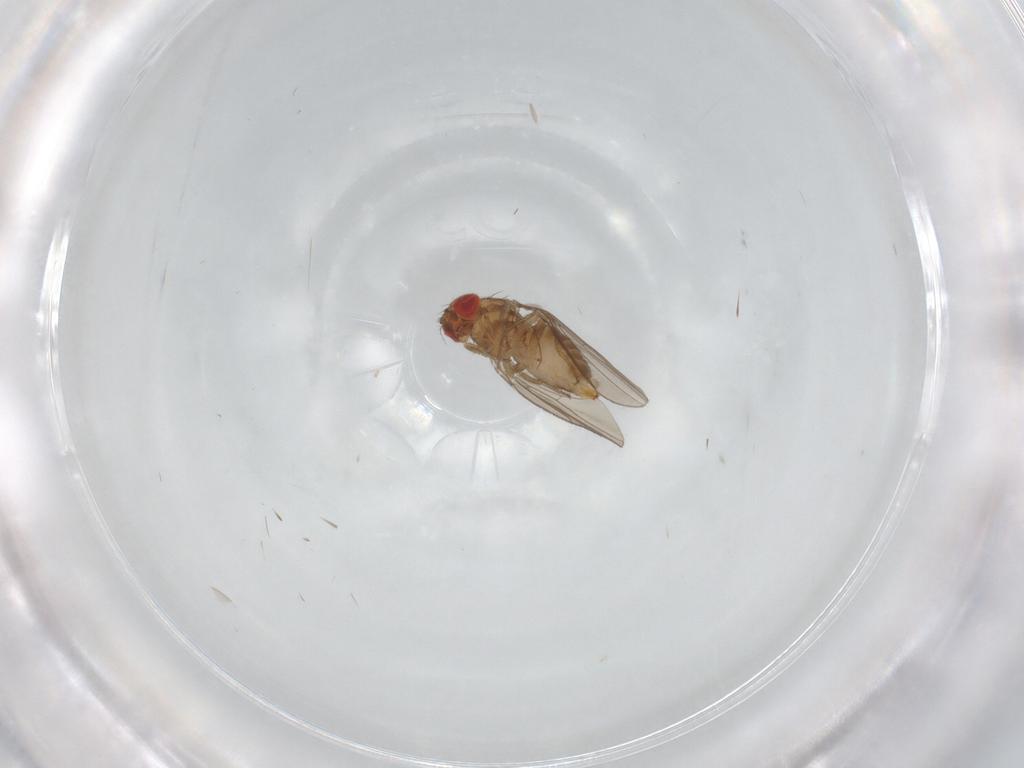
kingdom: Animalia
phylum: Arthropoda
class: Insecta
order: Diptera
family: Ephydridae
